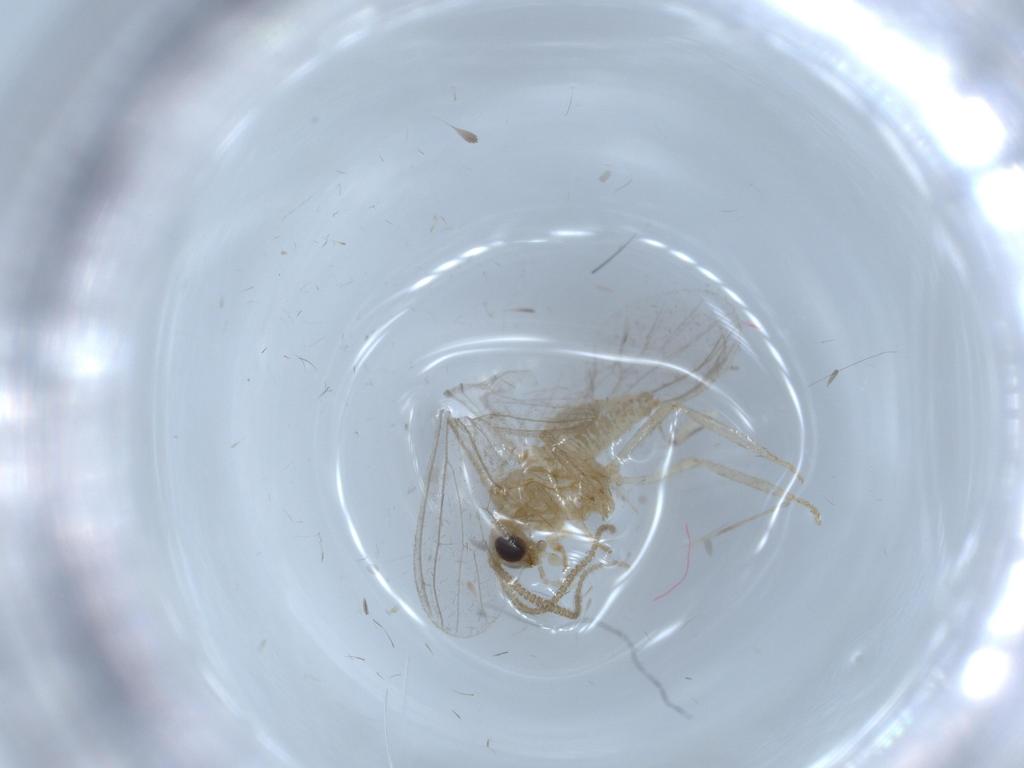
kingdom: Animalia
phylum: Arthropoda
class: Insecta
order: Neuroptera
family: Coniopterygidae
